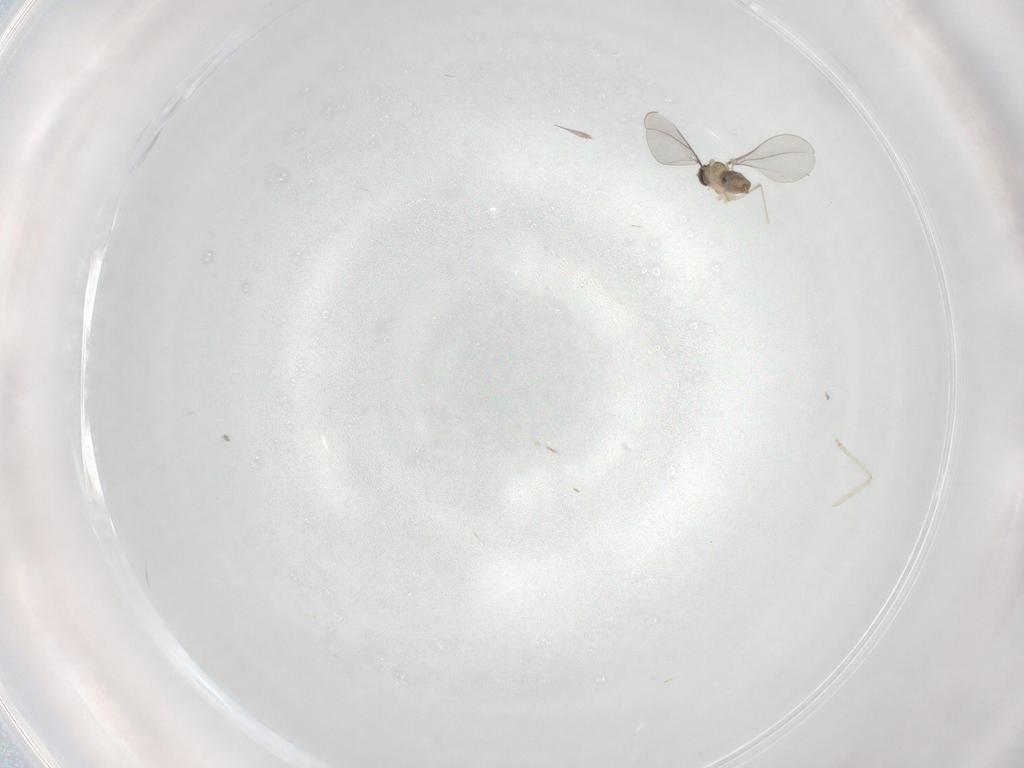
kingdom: Animalia
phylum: Arthropoda
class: Insecta
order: Diptera
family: Cecidomyiidae
